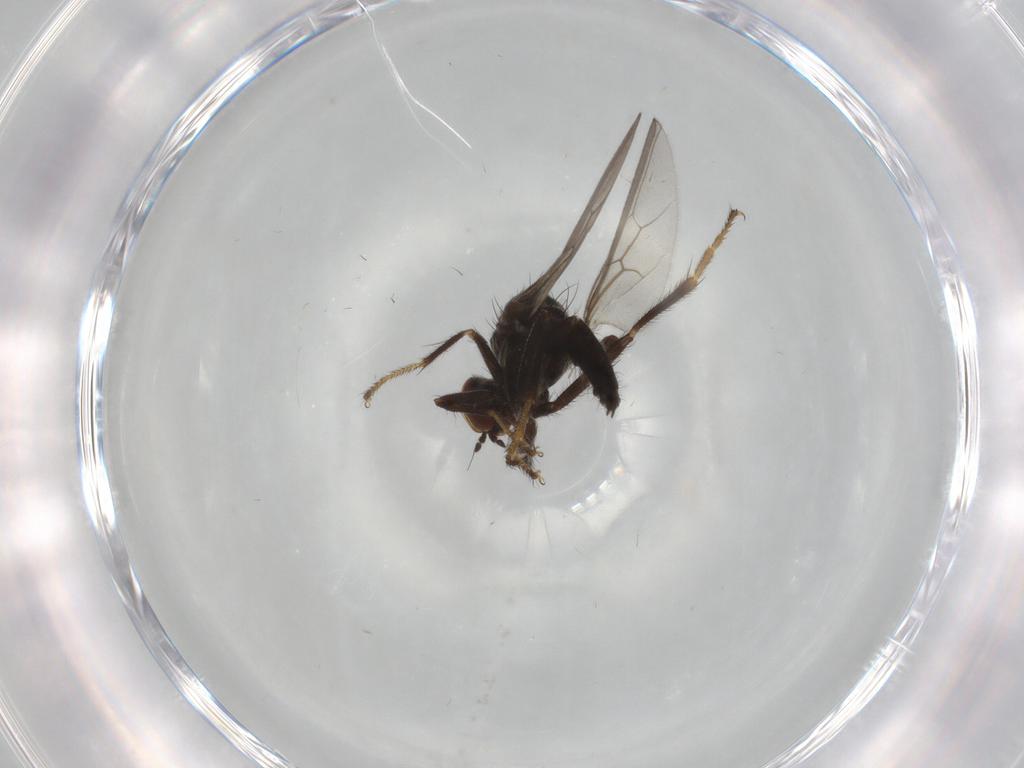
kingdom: Animalia
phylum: Arthropoda
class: Insecta
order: Diptera
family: Hybotidae
